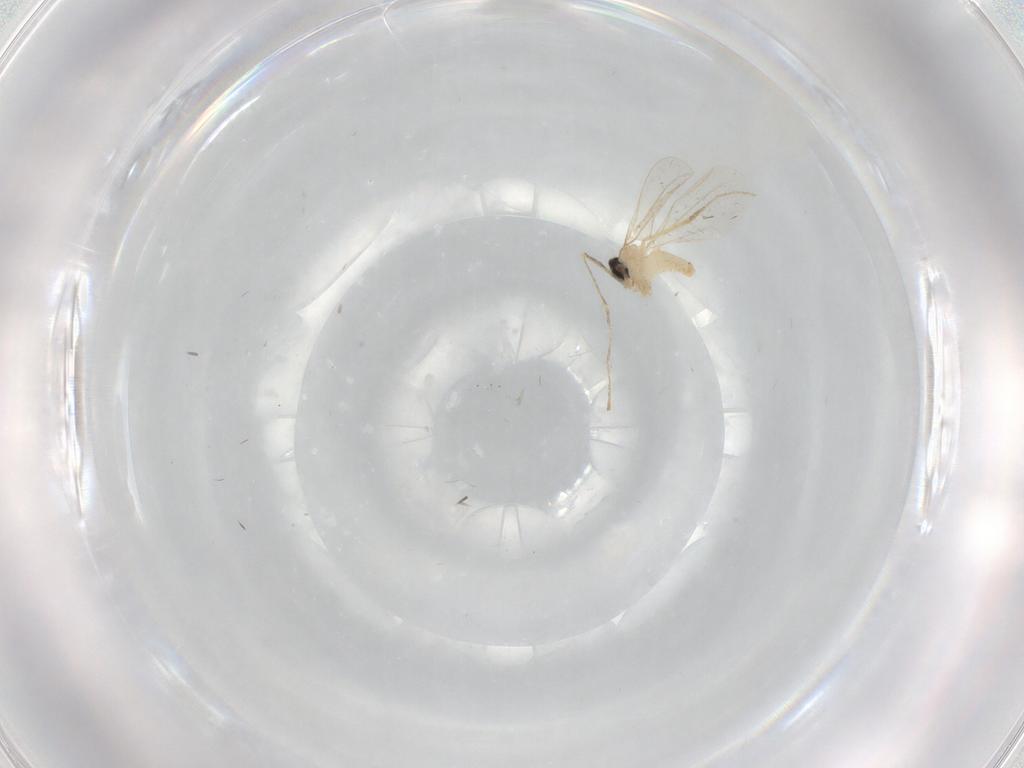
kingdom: Animalia
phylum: Arthropoda
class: Insecta
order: Diptera
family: Cecidomyiidae
